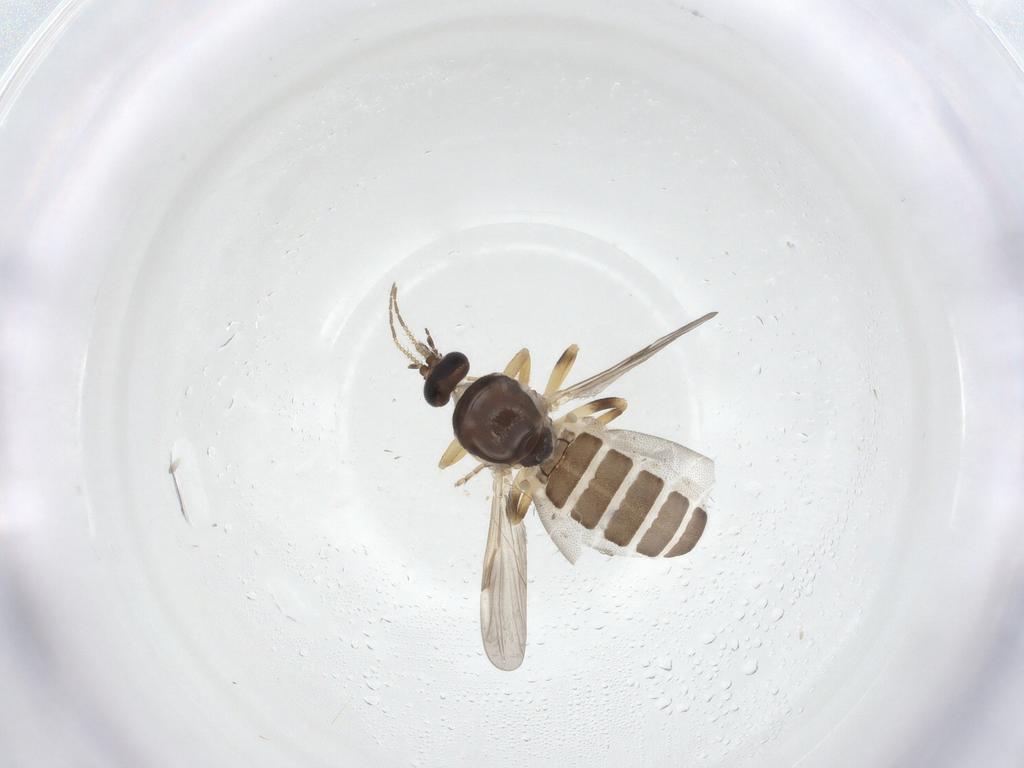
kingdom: Animalia
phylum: Arthropoda
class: Insecta
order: Diptera
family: Ceratopogonidae
